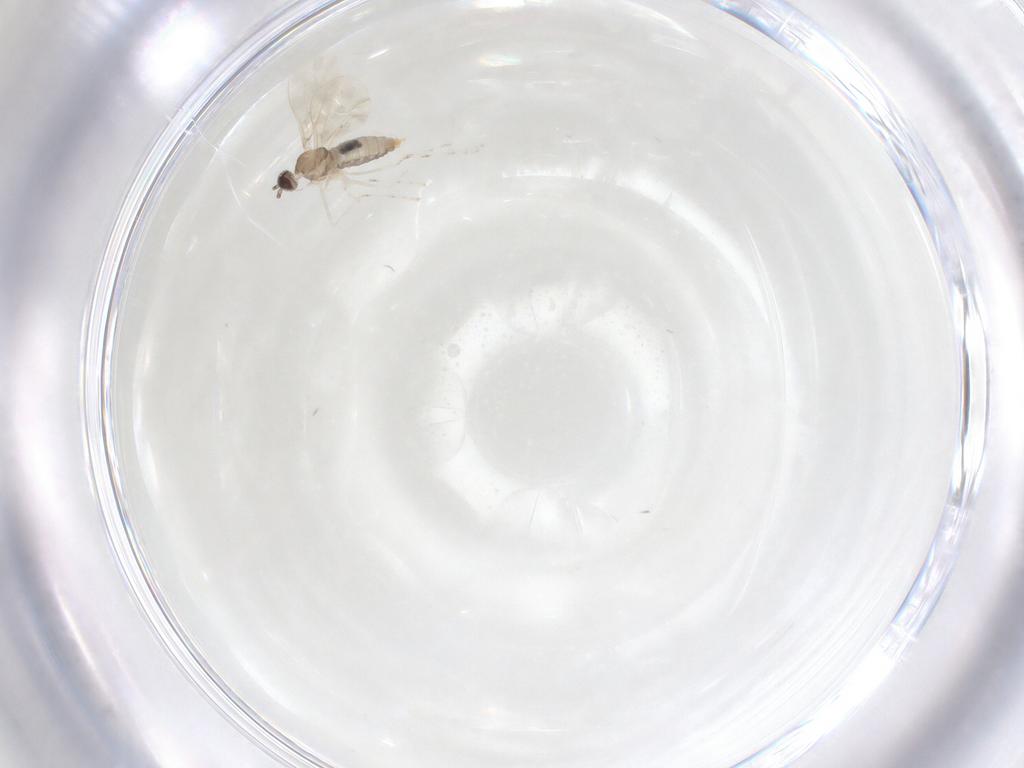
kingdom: Animalia
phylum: Arthropoda
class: Insecta
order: Diptera
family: Cecidomyiidae
